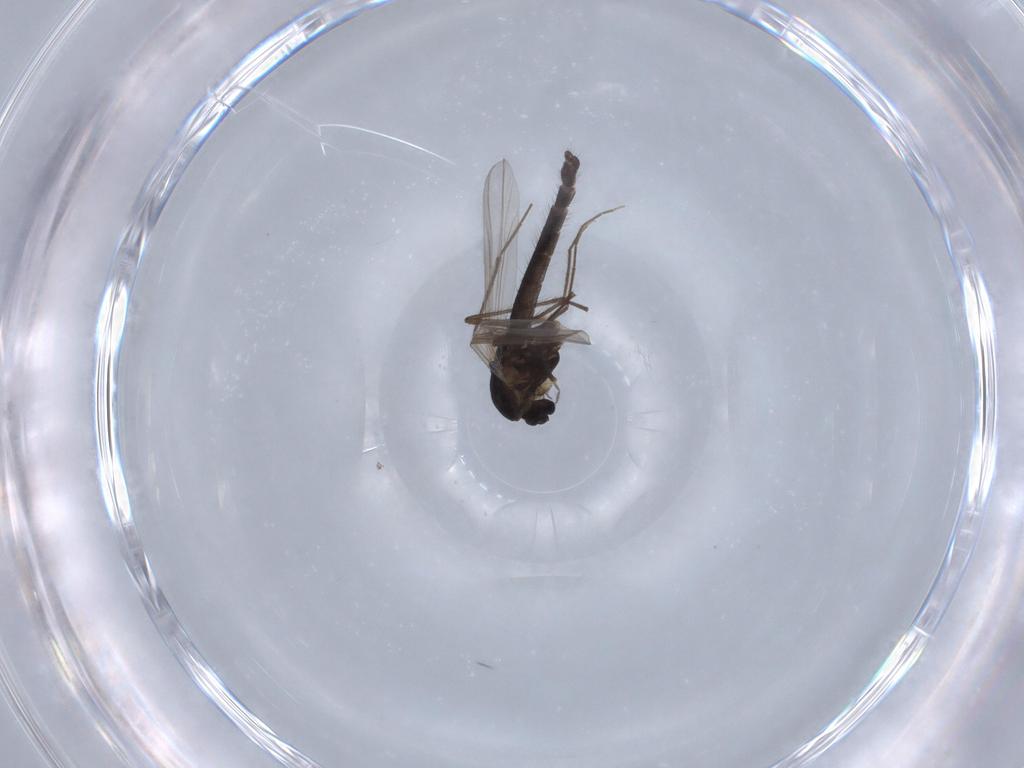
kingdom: Animalia
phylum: Arthropoda
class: Insecta
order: Diptera
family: Chironomidae
